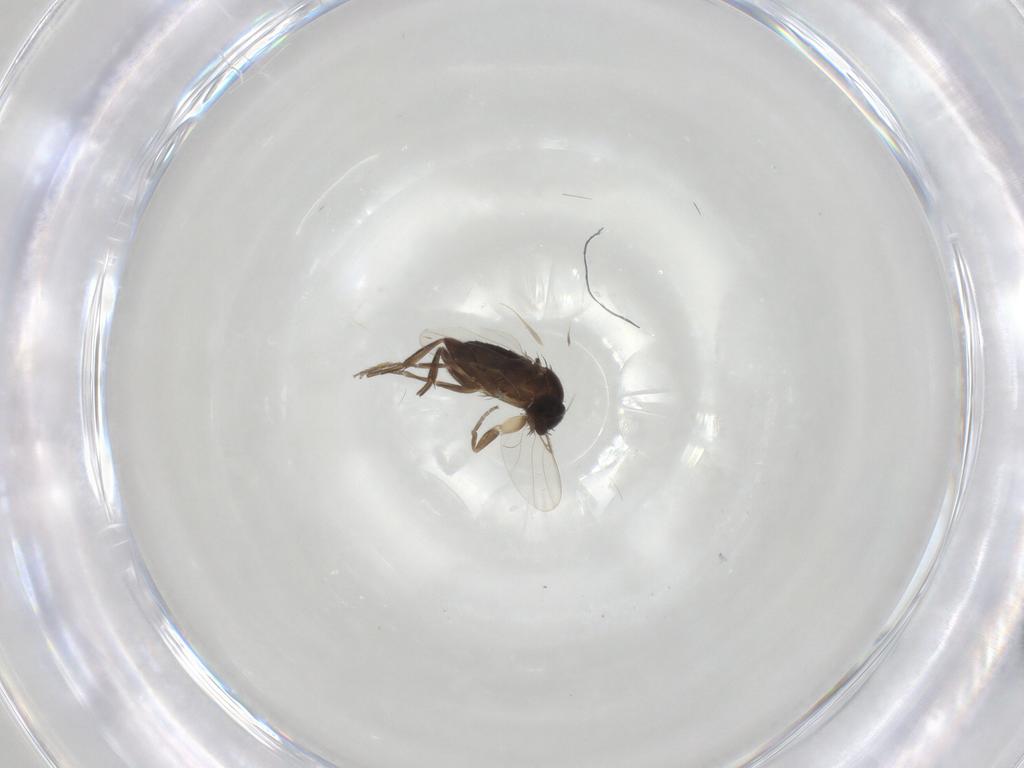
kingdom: Animalia
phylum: Arthropoda
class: Insecta
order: Diptera
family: Phoridae
